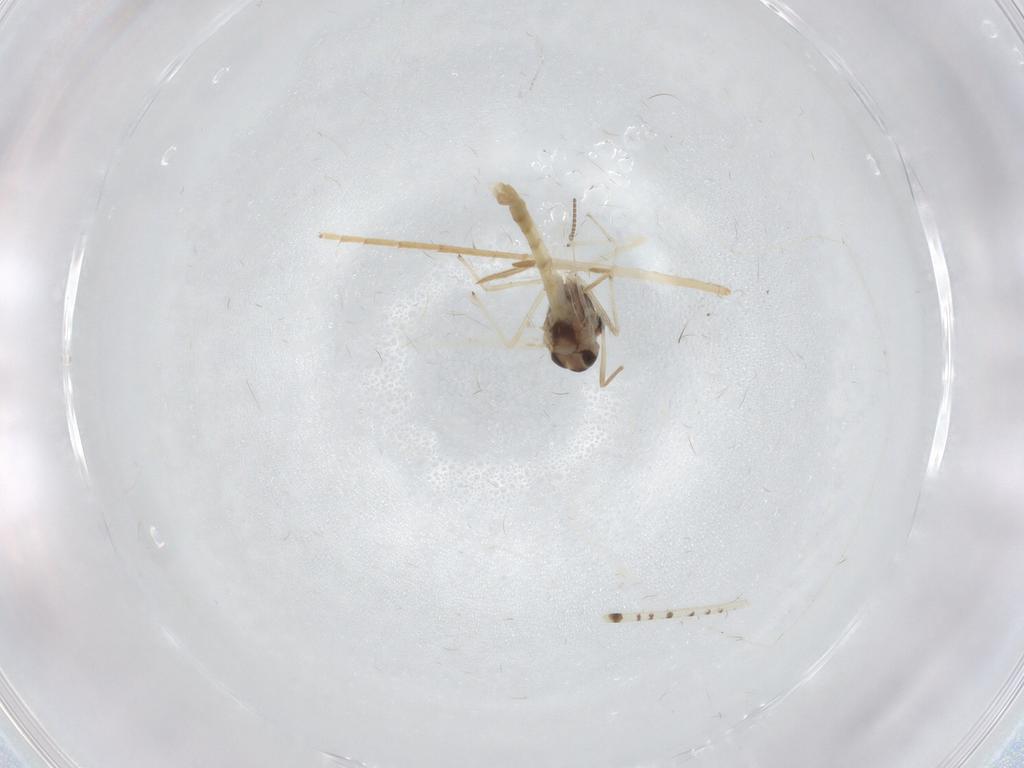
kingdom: Animalia
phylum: Arthropoda
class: Insecta
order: Diptera
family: Chironomidae
